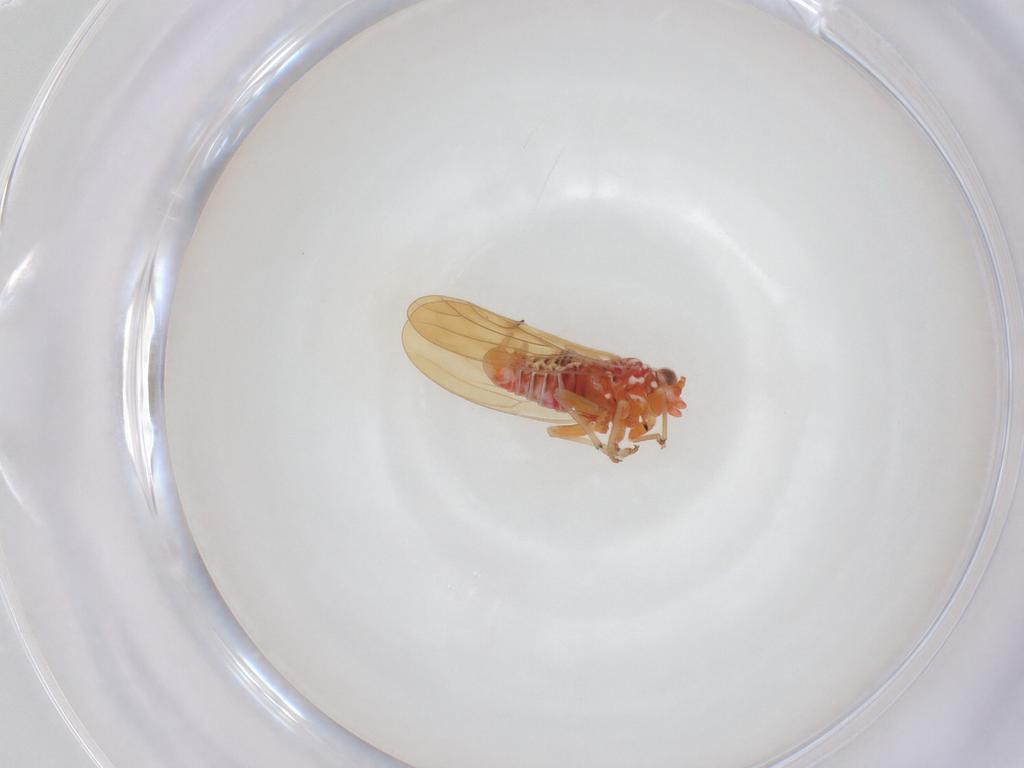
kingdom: Animalia
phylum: Arthropoda
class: Insecta
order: Hemiptera
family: Psyllidae
